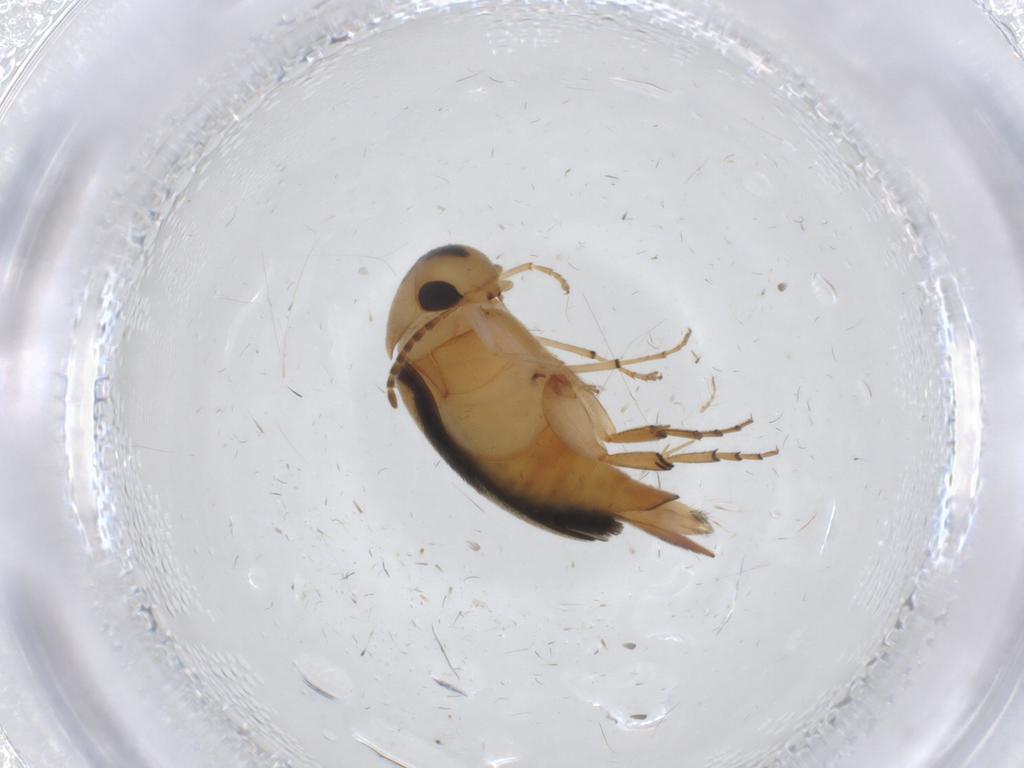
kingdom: Animalia
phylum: Arthropoda
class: Insecta
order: Coleoptera
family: Mordellidae
